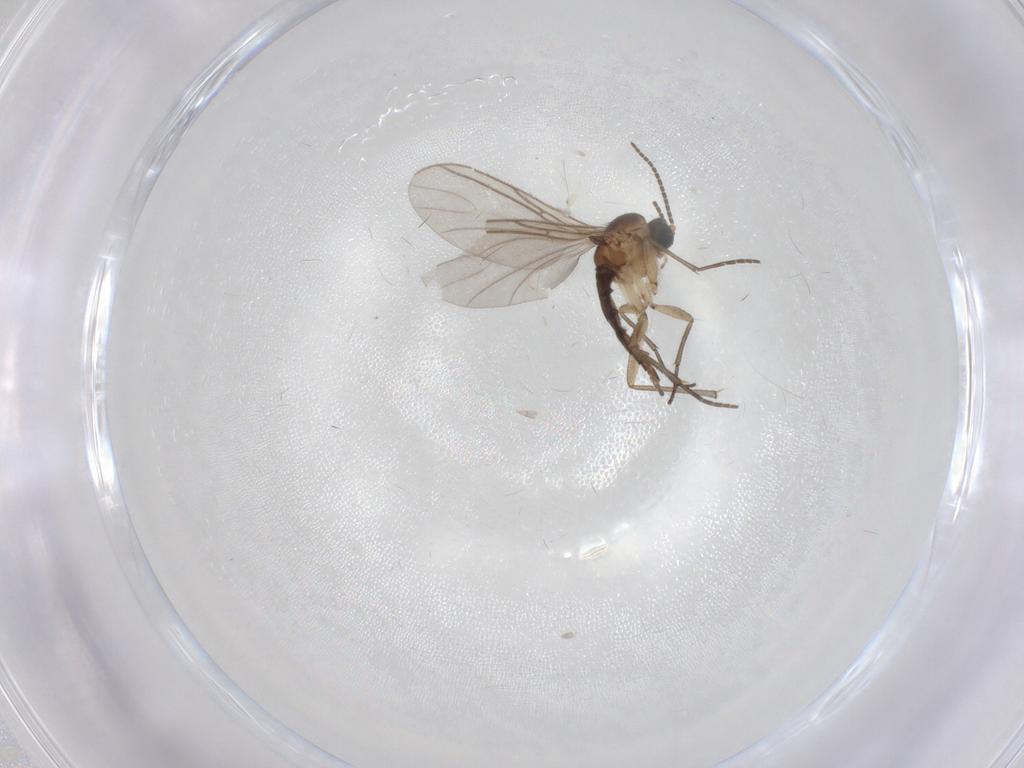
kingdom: Animalia
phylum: Arthropoda
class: Insecta
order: Diptera
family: Sciaridae
